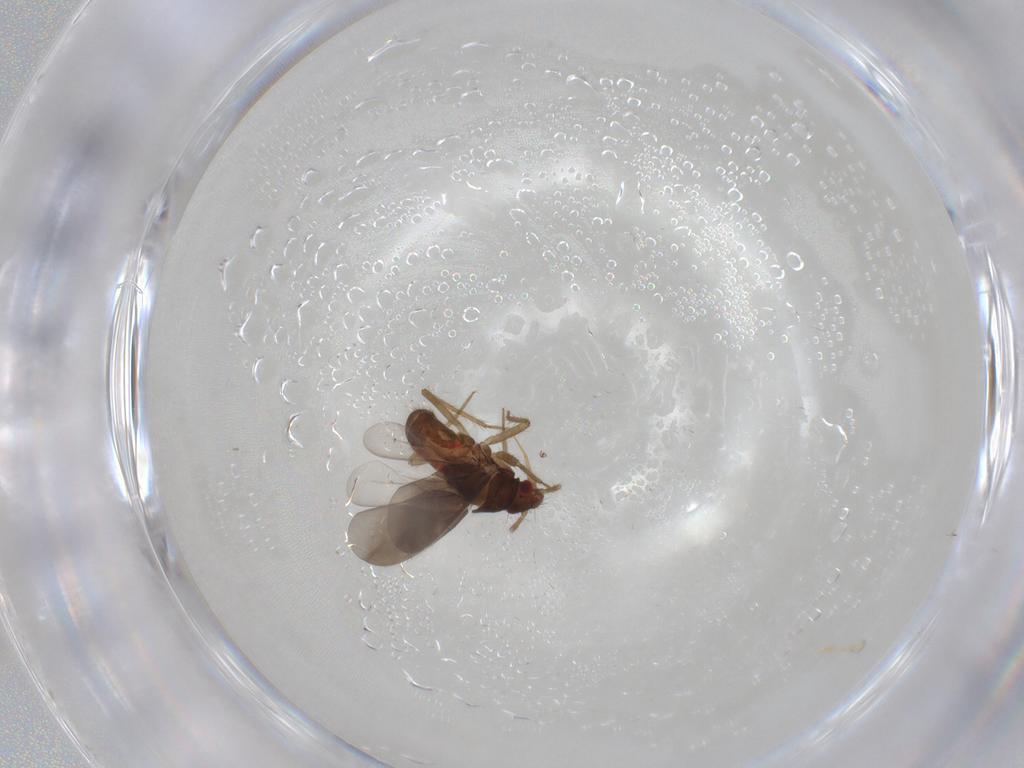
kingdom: Animalia
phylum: Arthropoda
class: Insecta
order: Hemiptera
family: Ceratocombidae
